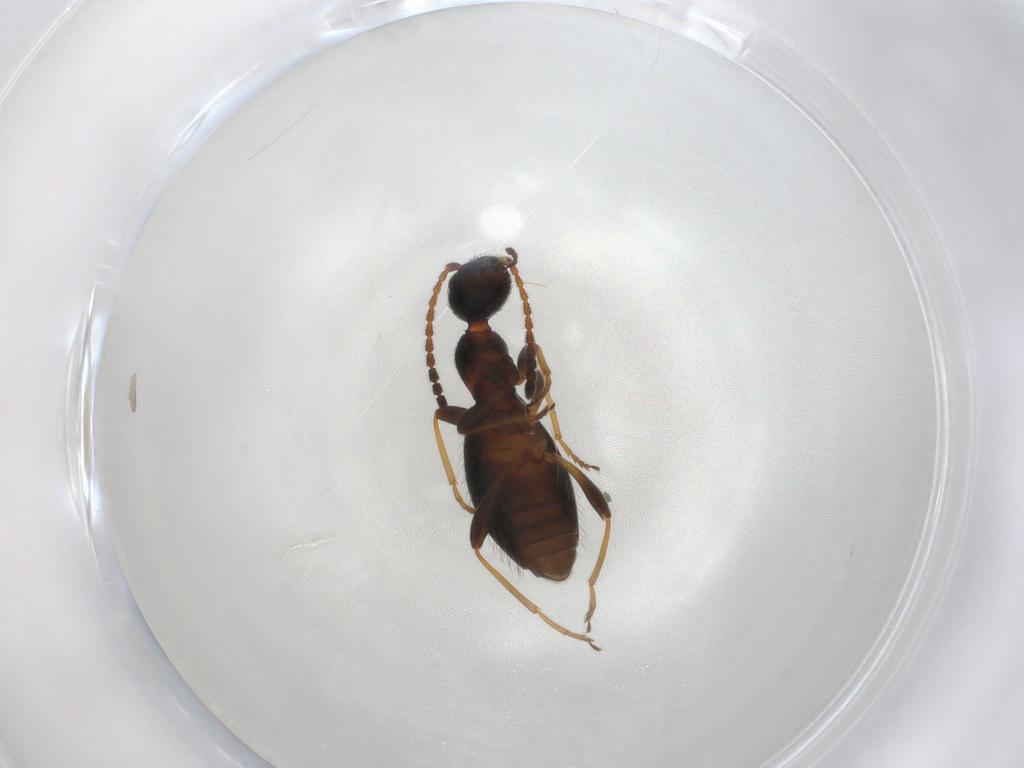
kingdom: Animalia
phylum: Arthropoda
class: Insecta
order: Coleoptera
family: Anthicidae
